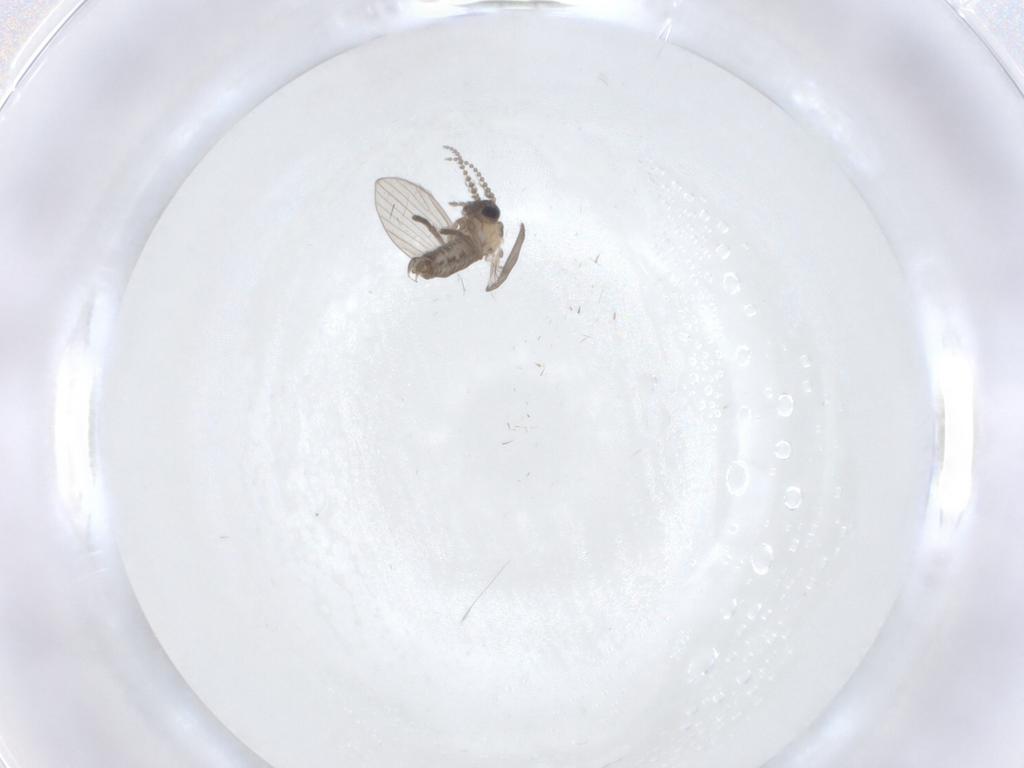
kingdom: Animalia
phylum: Arthropoda
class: Insecta
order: Diptera
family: Psychodidae
